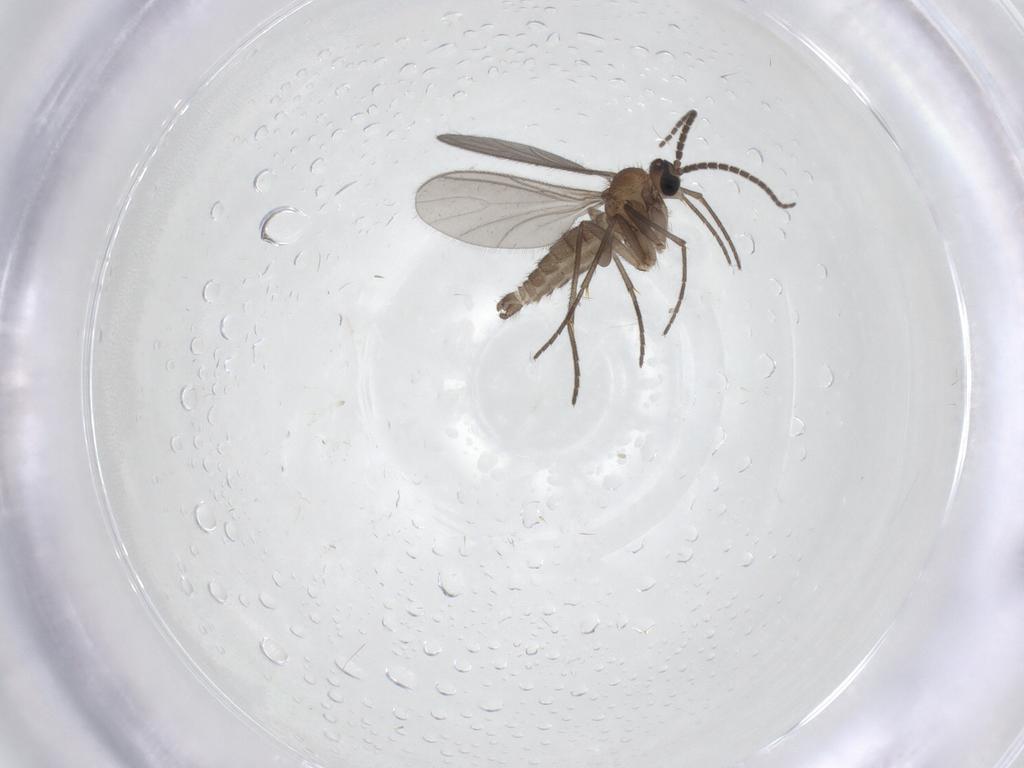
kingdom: Animalia
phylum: Arthropoda
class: Insecta
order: Diptera
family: Sciaridae
